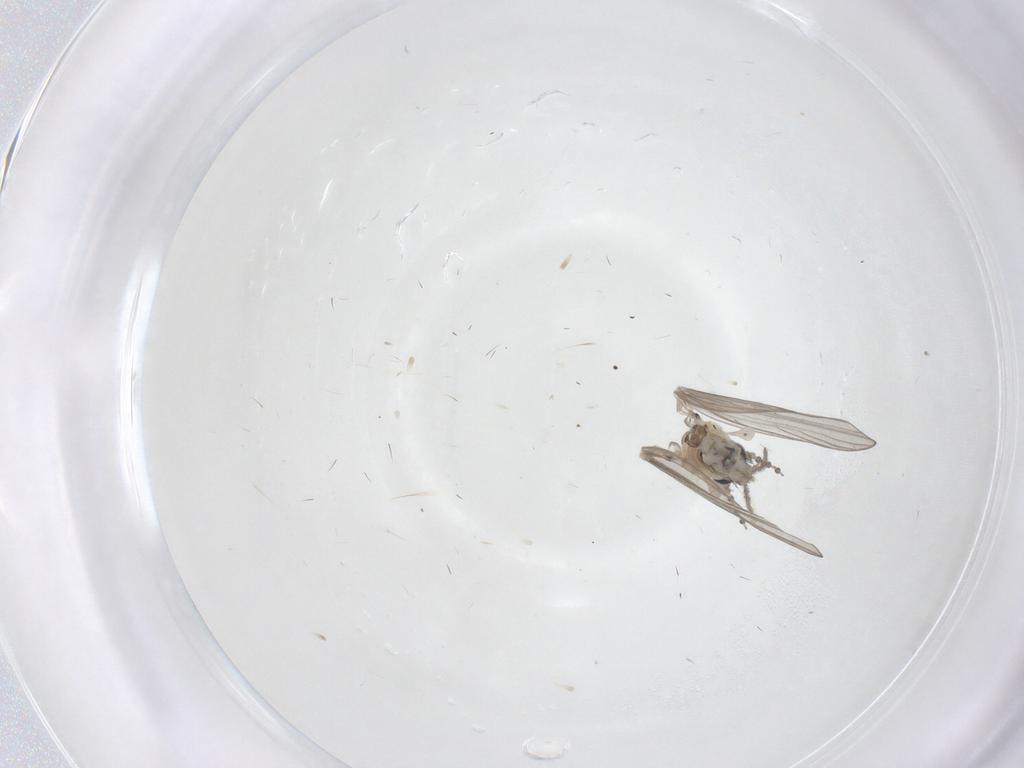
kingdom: Animalia
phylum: Arthropoda
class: Insecta
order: Diptera
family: Psychodidae
